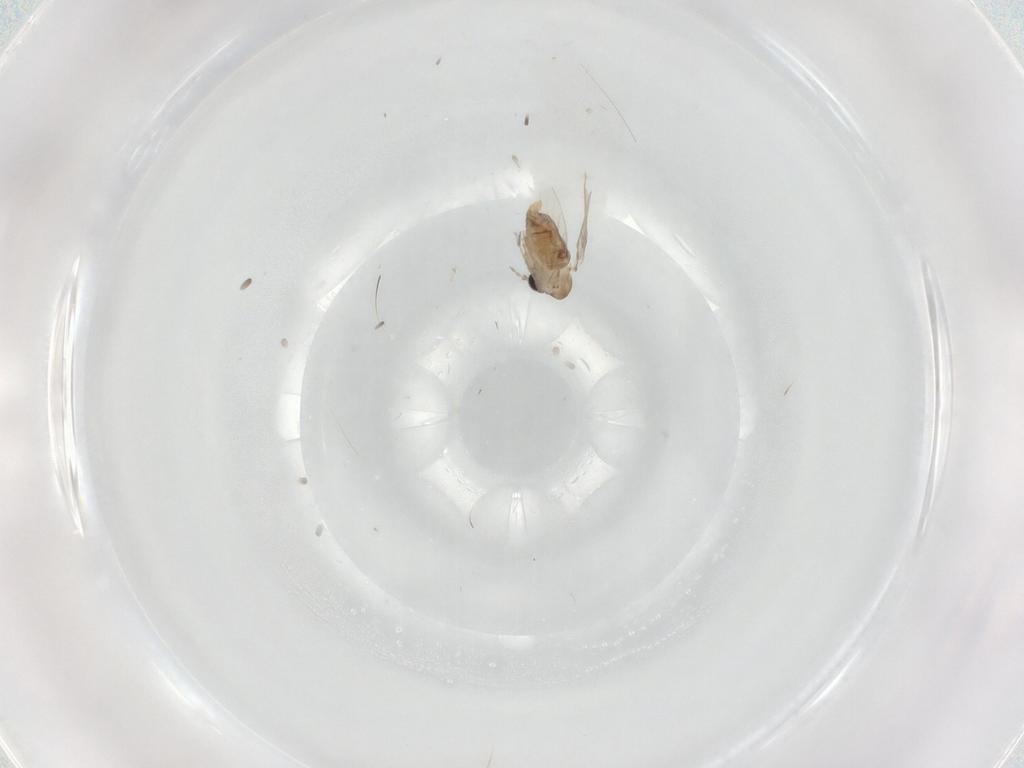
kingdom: Animalia
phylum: Arthropoda
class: Insecta
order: Diptera
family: Psychodidae
